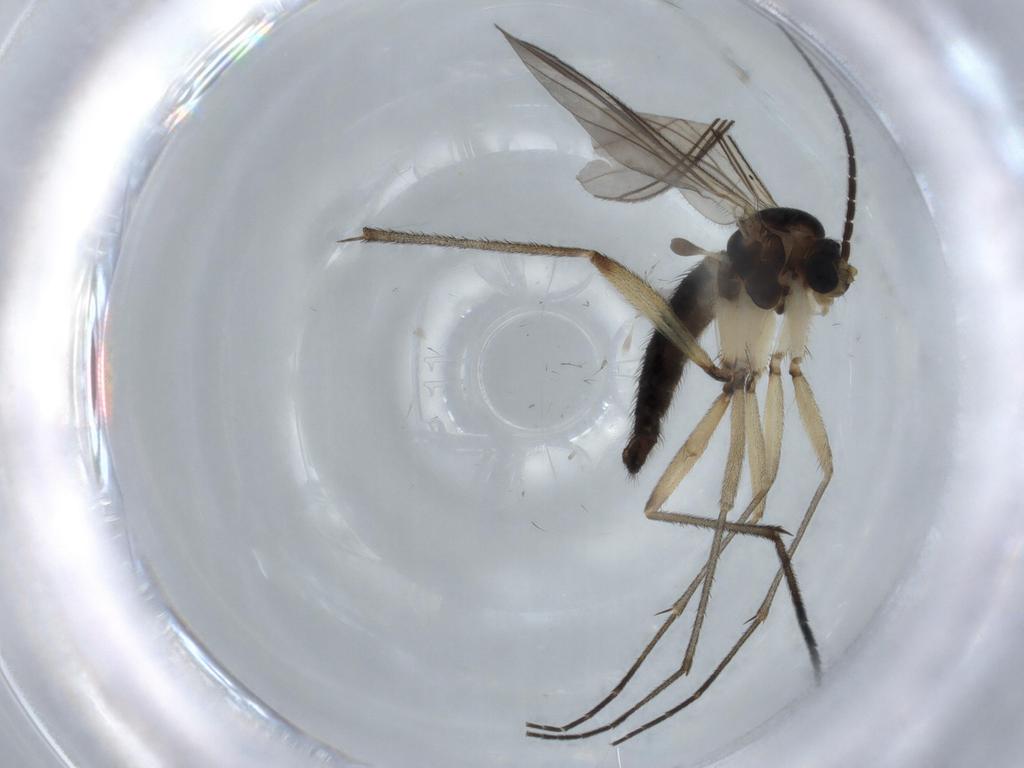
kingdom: Animalia
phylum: Arthropoda
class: Insecta
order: Diptera
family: Sciaridae
